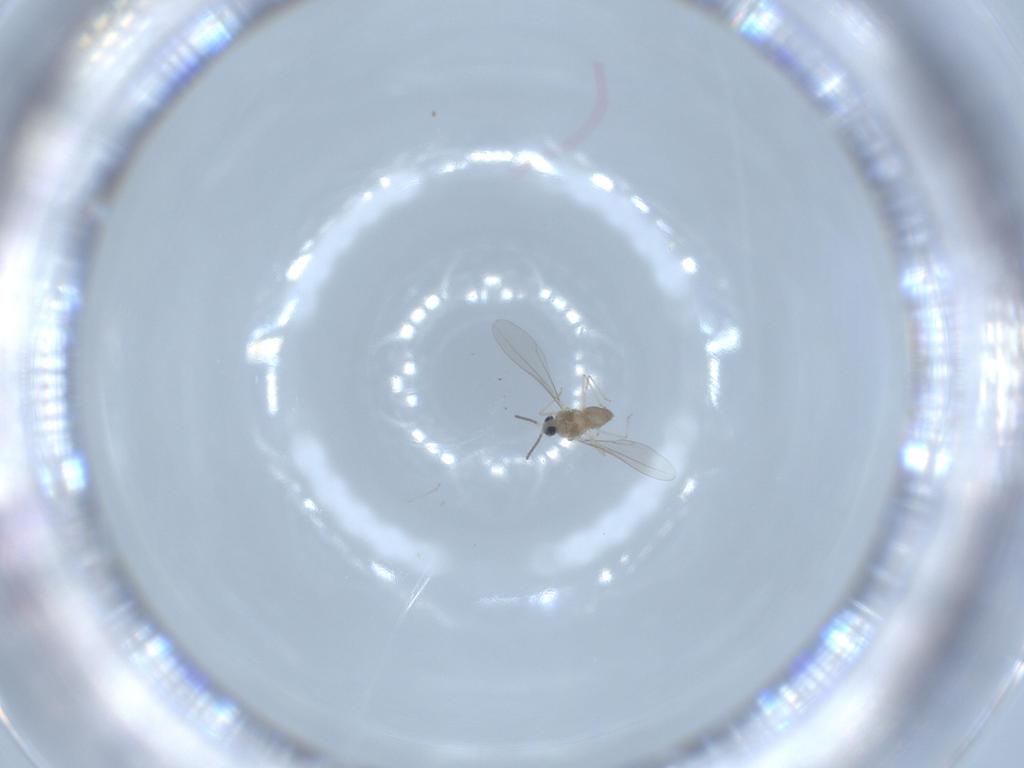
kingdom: Animalia
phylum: Arthropoda
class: Insecta
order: Diptera
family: Cecidomyiidae
